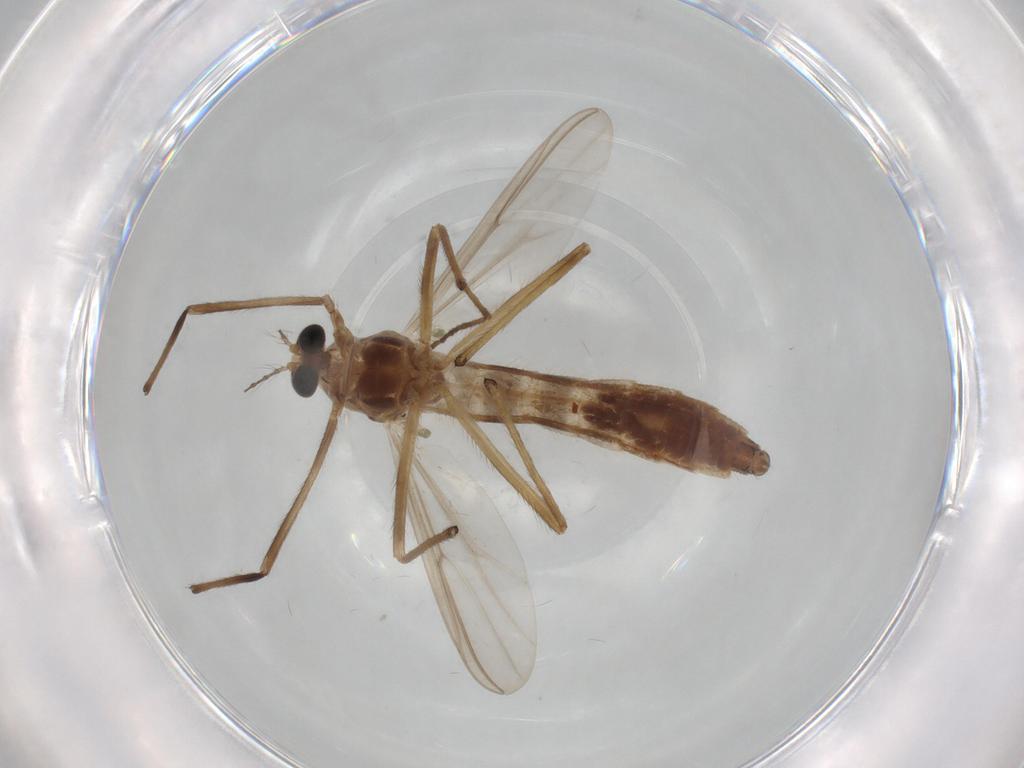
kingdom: Animalia
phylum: Arthropoda
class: Insecta
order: Diptera
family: Chironomidae
